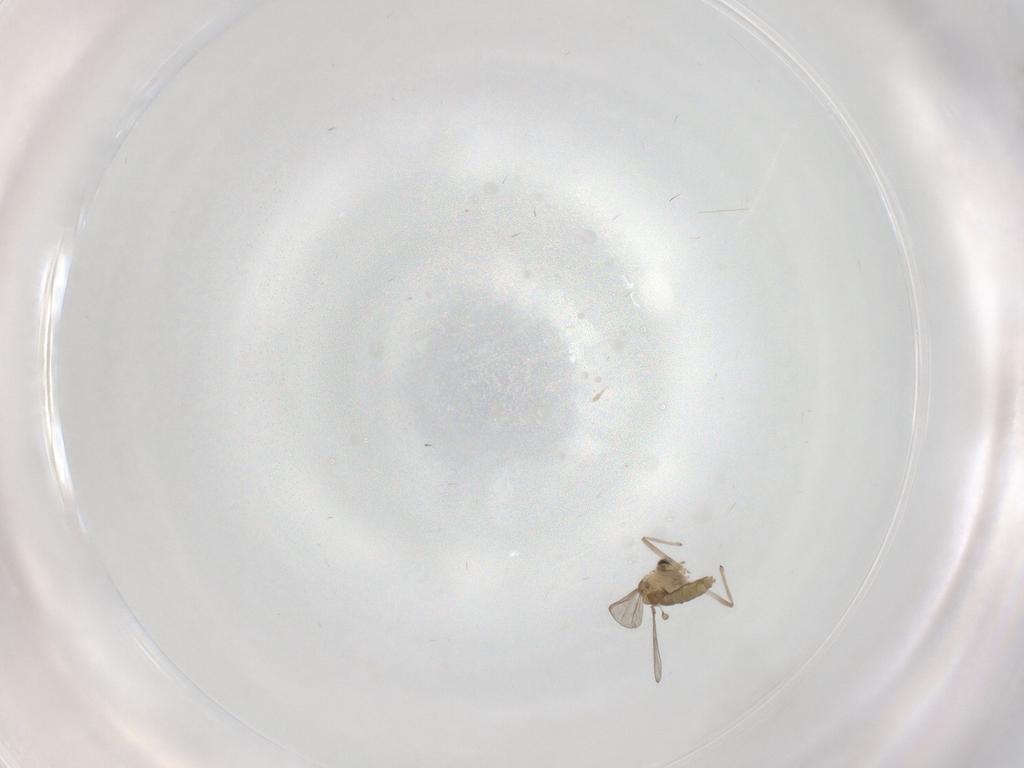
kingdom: Animalia
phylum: Arthropoda
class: Insecta
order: Diptera
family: Chironomidae
